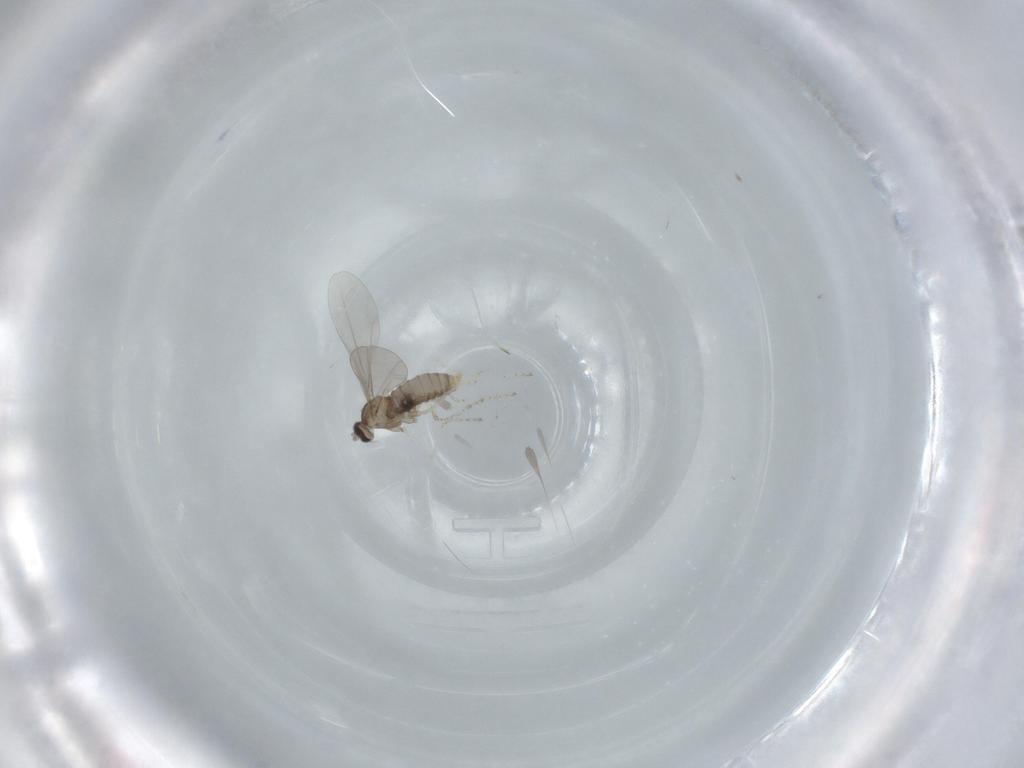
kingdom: Animalia
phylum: Arthropoda
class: Insecta
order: Diptera
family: Cecidomyiidae
